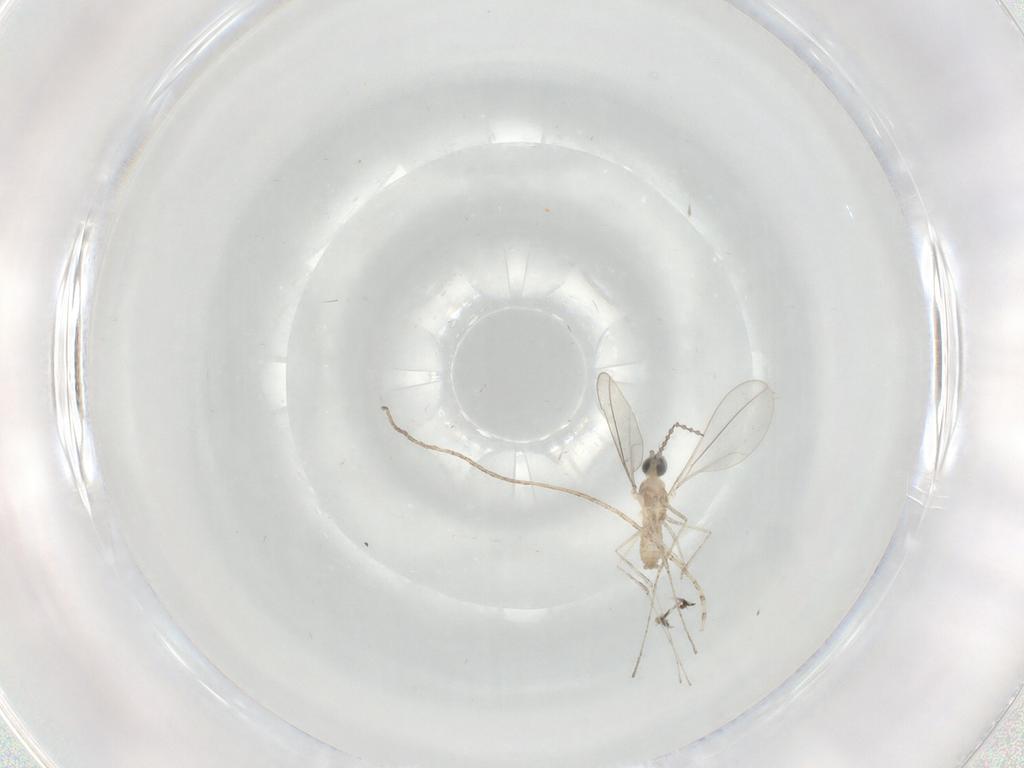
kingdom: Animalia
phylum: Arthropoda
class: Insecta
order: Diptera
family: Cecidomyiidae
